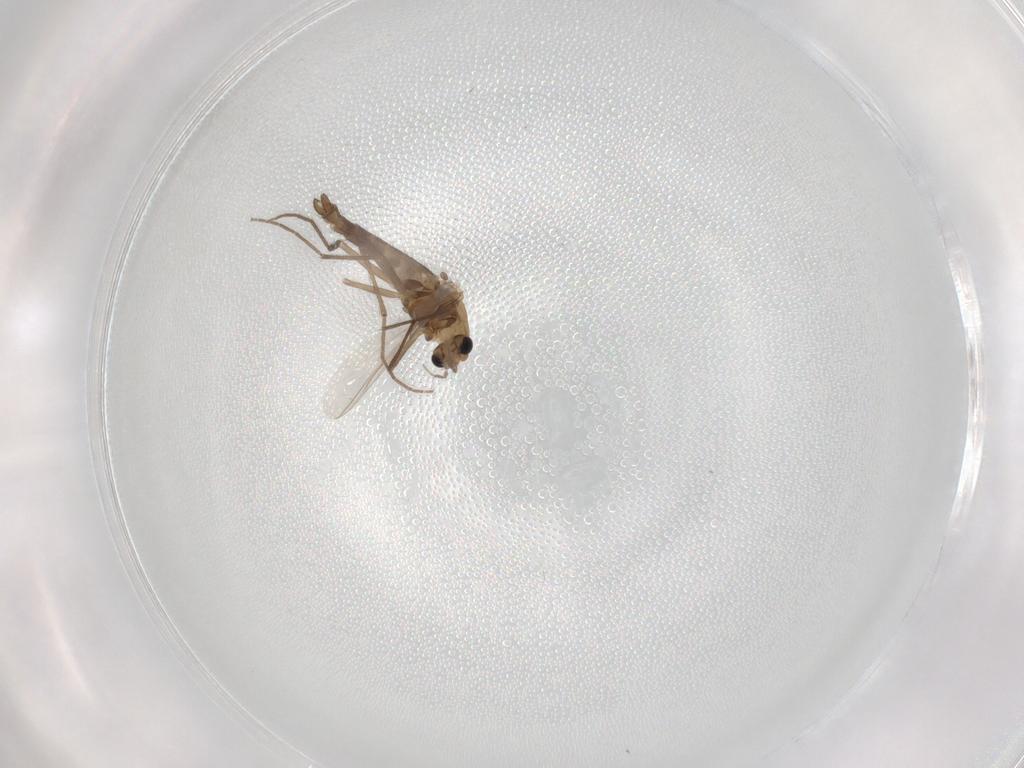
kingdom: Animalia
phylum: Arthropoda
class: Insecta
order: Diptera
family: Chironomidae
